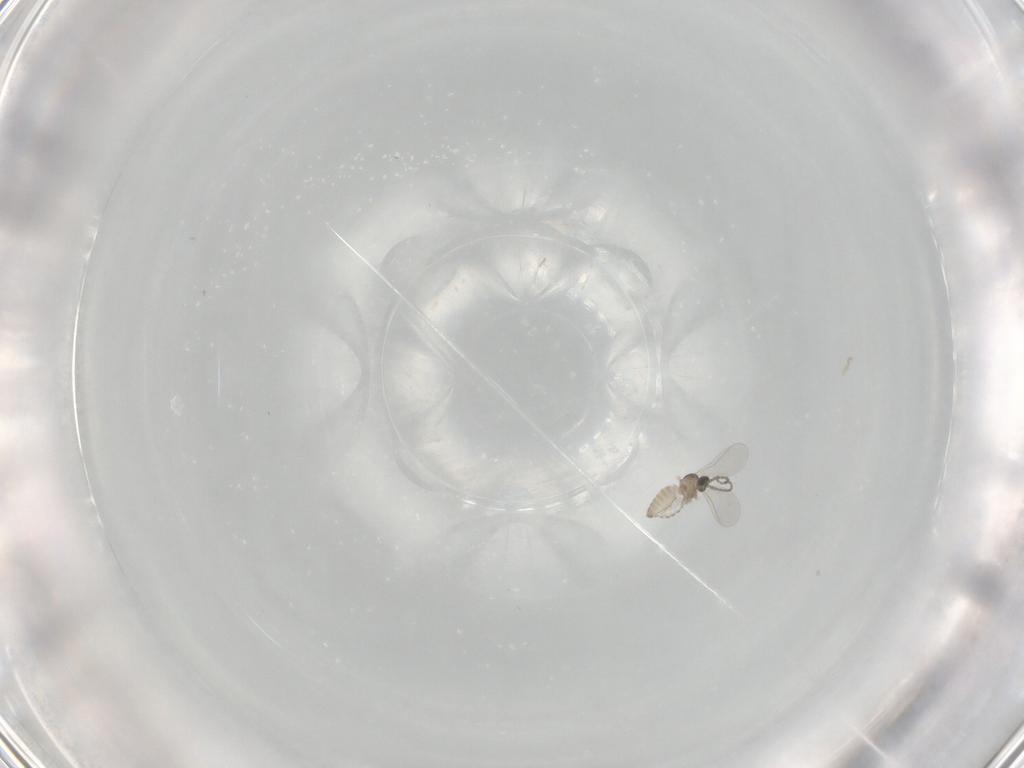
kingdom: Animalia
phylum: Arthropoda
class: Insecta
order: Diptera
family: Cecidomyiidae
